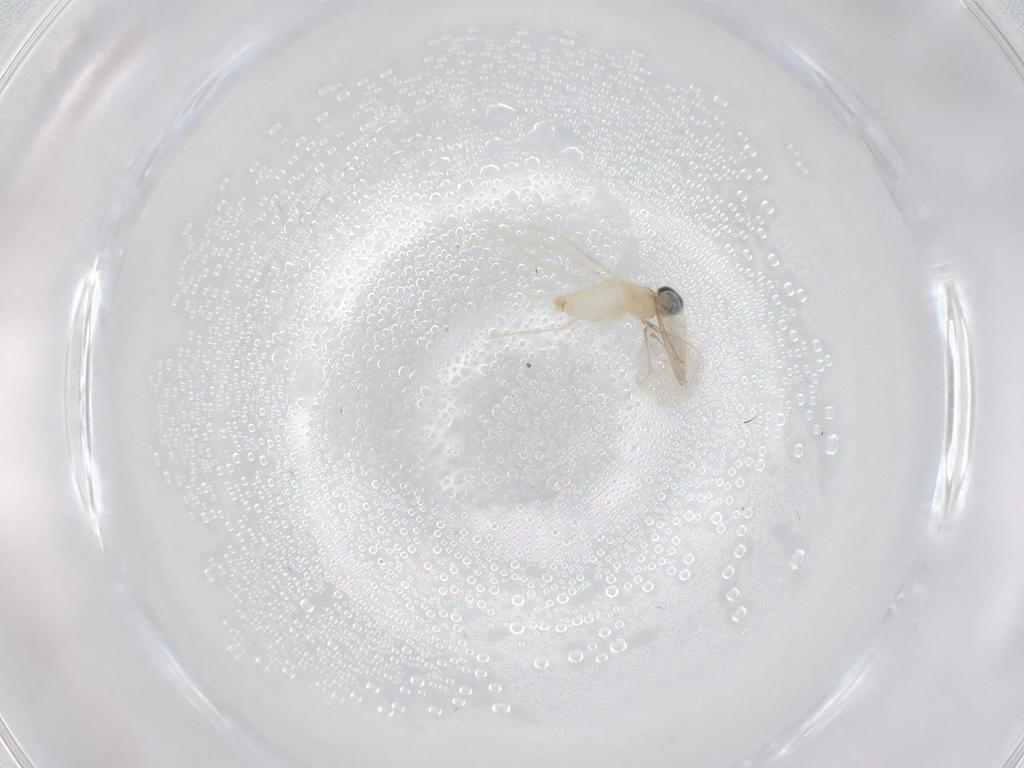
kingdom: Animalia
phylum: Arthropoda
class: Insecta
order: Diptera
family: Cecidomyiidae
